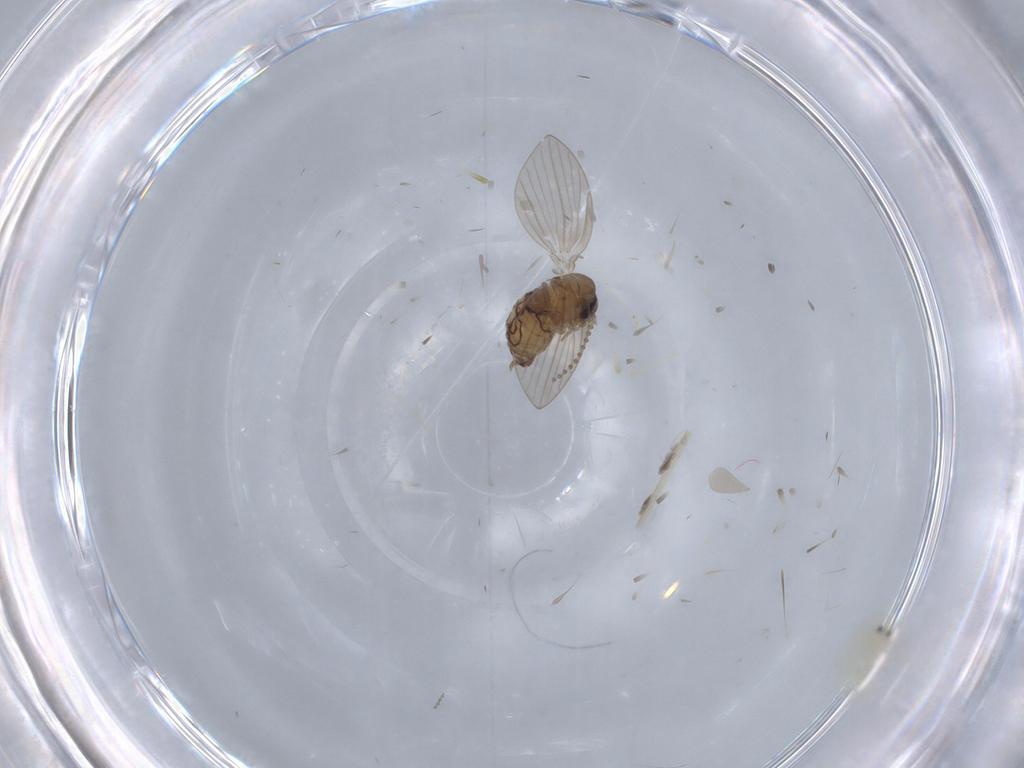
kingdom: Animalia
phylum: Arthropoda
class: Insecta
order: Diptera
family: Psychodidae
